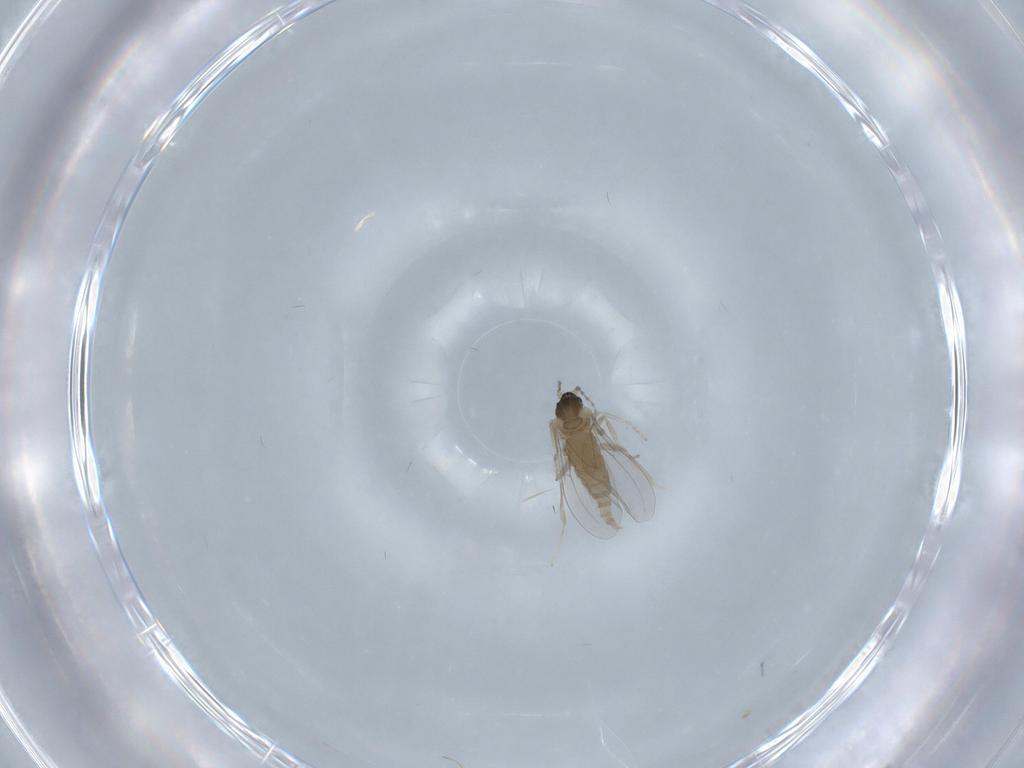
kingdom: Animalia
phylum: Arthropoda
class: Insecta
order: Diptera
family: Cecidomyiidae
